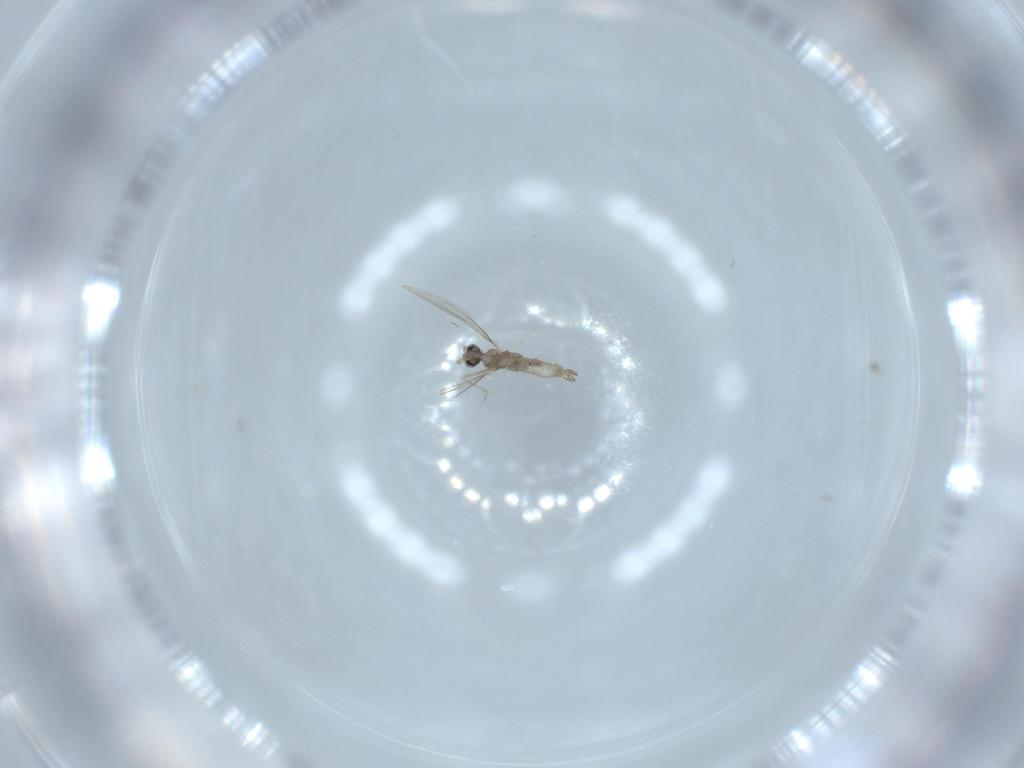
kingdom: Animalia
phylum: Arthropoda
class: Insecta
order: Diptera
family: Cecidomyiidae
